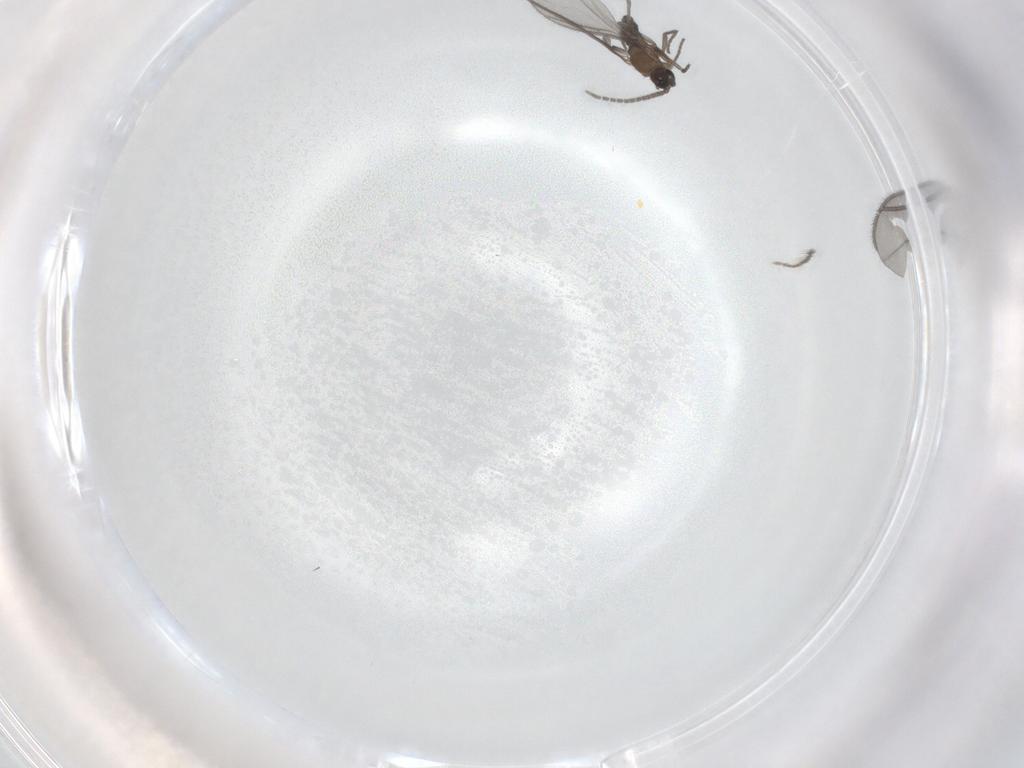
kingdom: Animalia
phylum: Arthropoda
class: Insecta
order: Diptera
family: Sciaridae
